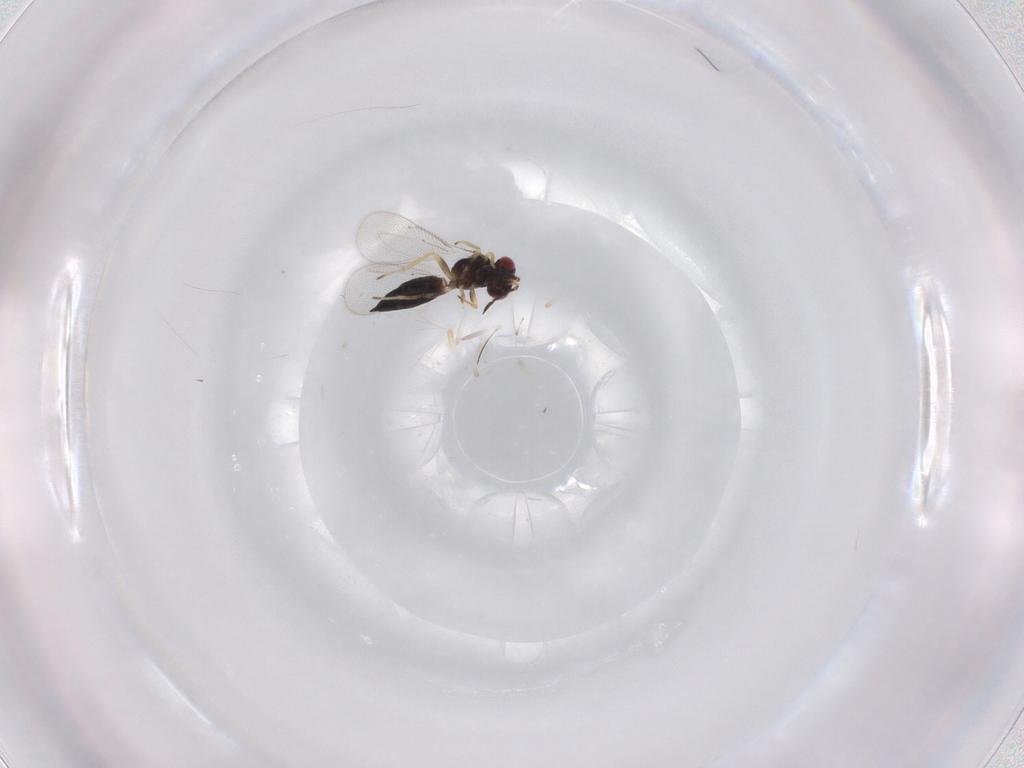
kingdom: Animalia
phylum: Arthropoda
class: Insecta
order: Hymenoptera
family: Eulophidae
